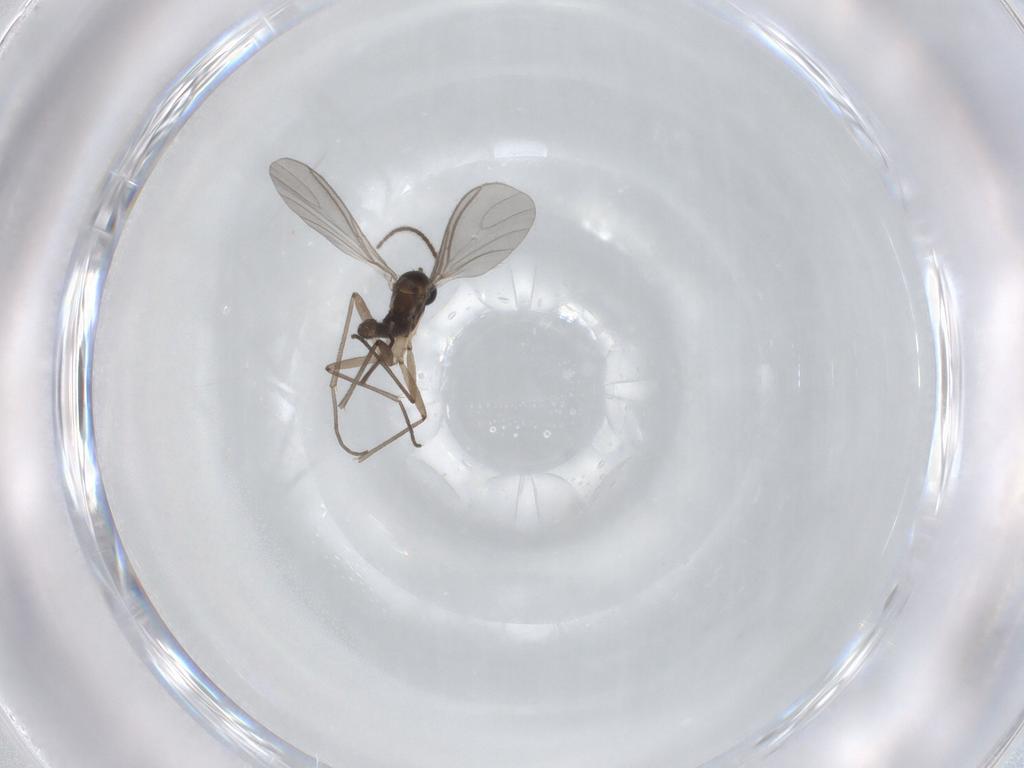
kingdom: Animalia
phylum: Arthropoda
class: Insecta
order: Diptera
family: Sciaridae
